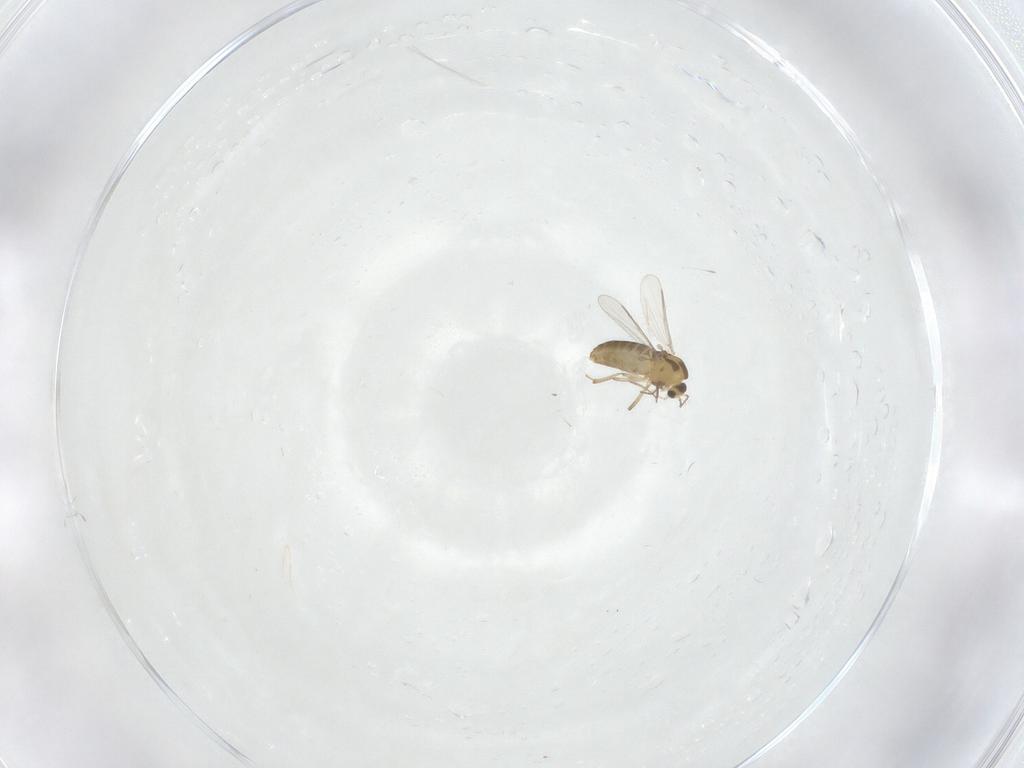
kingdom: Animalia
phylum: Arthropoda
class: Insecta
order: Diptera
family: Chironomidae
